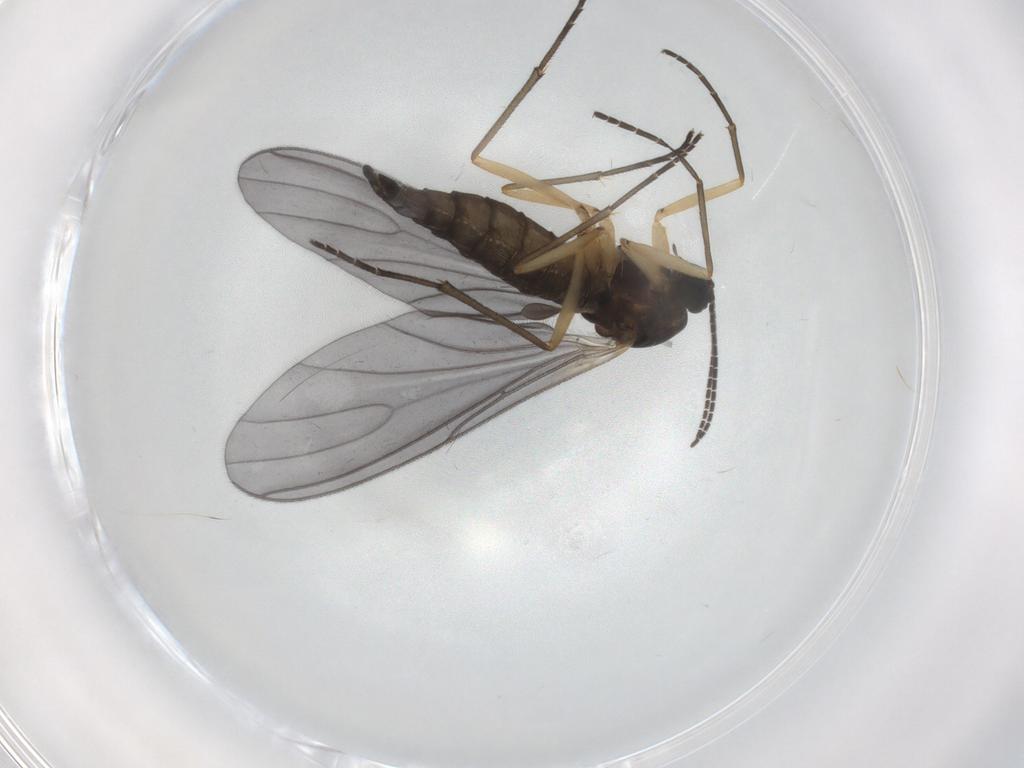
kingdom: Animalia
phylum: Arthropoda
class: Insecta
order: Diptera
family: Sciaridae
